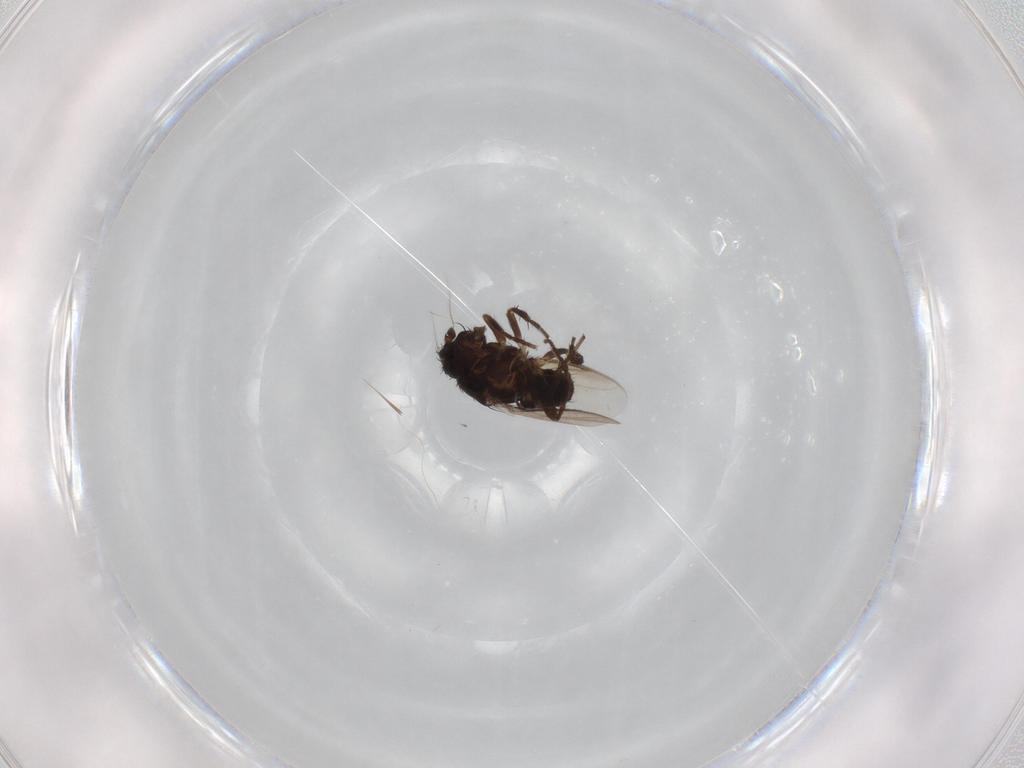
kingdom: Animalia
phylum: Arthropoda
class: Insecta
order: Diptera
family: Sphaeroceridae
